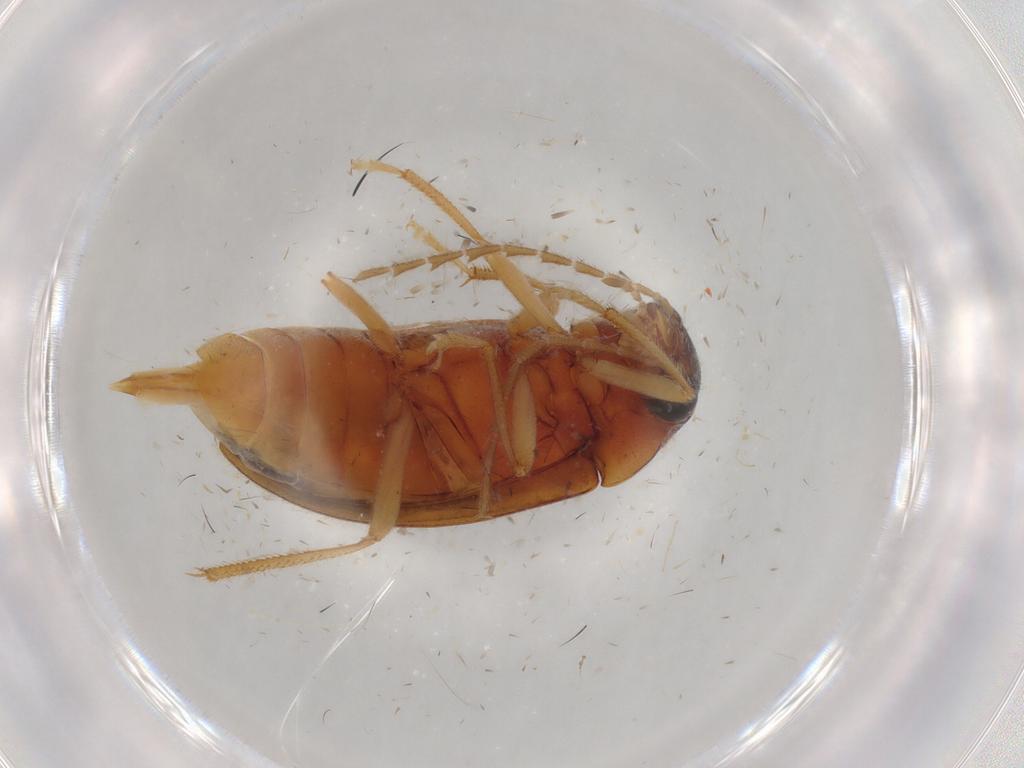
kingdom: Animalia
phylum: Arthropoda
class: Insecta
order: Coleoptera
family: Ptilodactylidae
